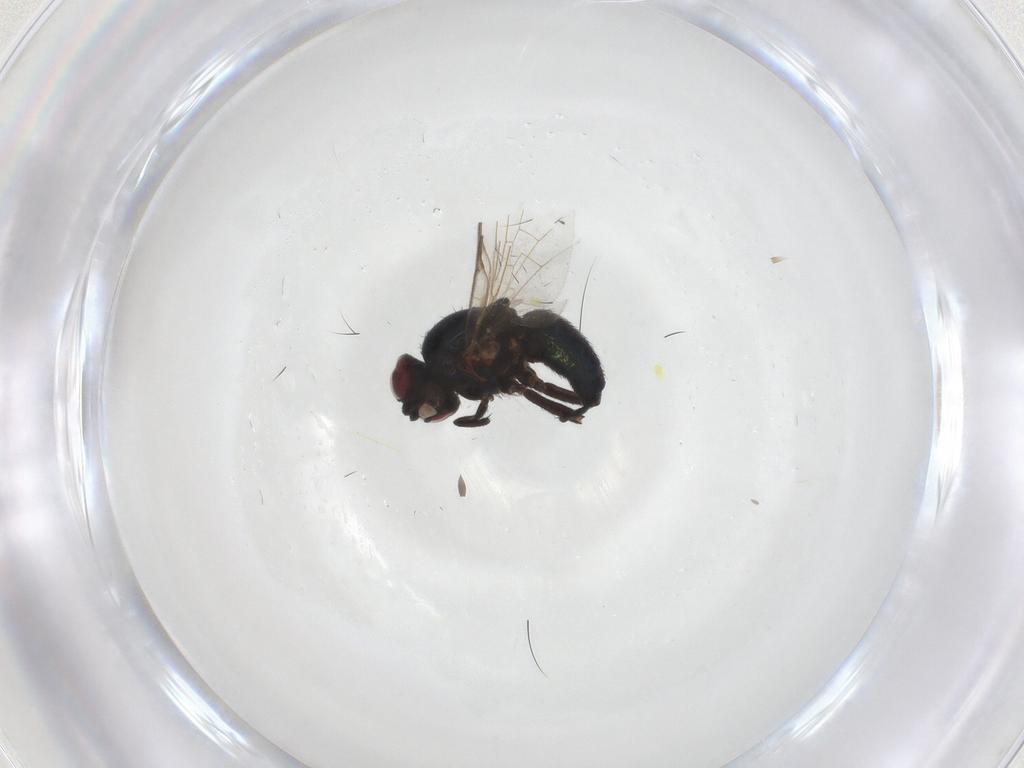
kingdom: Animalia
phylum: Arthropoda
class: Insecta
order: Diptera
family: Agromyzidae
